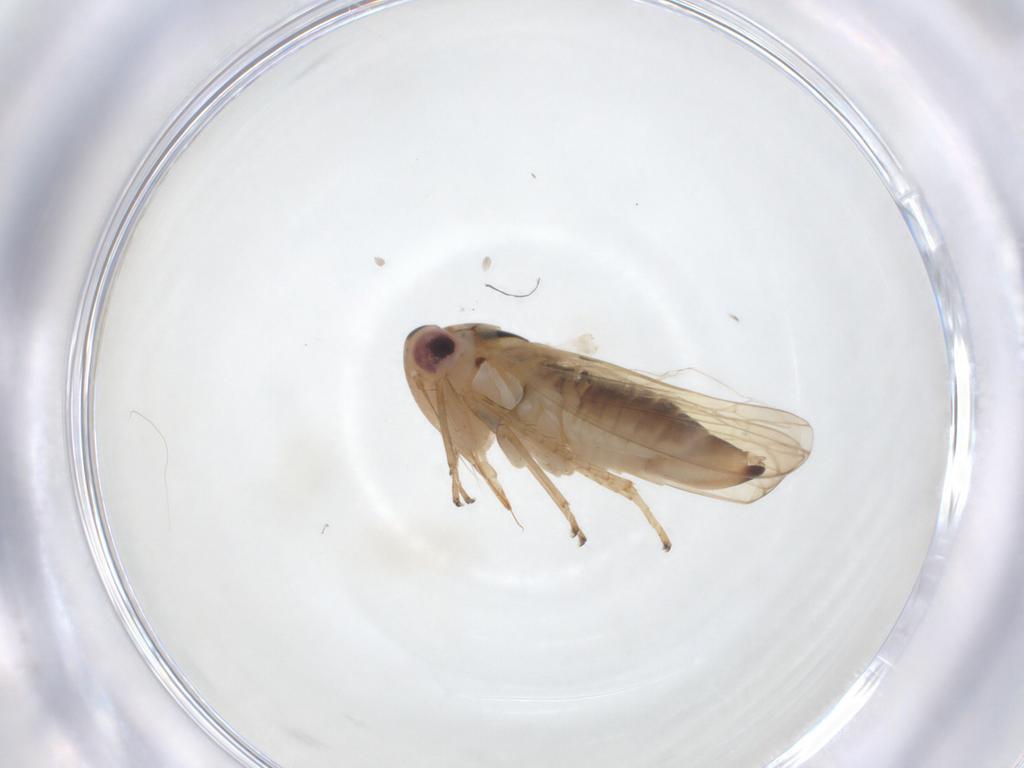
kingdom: Animalia
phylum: Arthropoda
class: Insecta
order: Hemiptera
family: Cicadellidae
